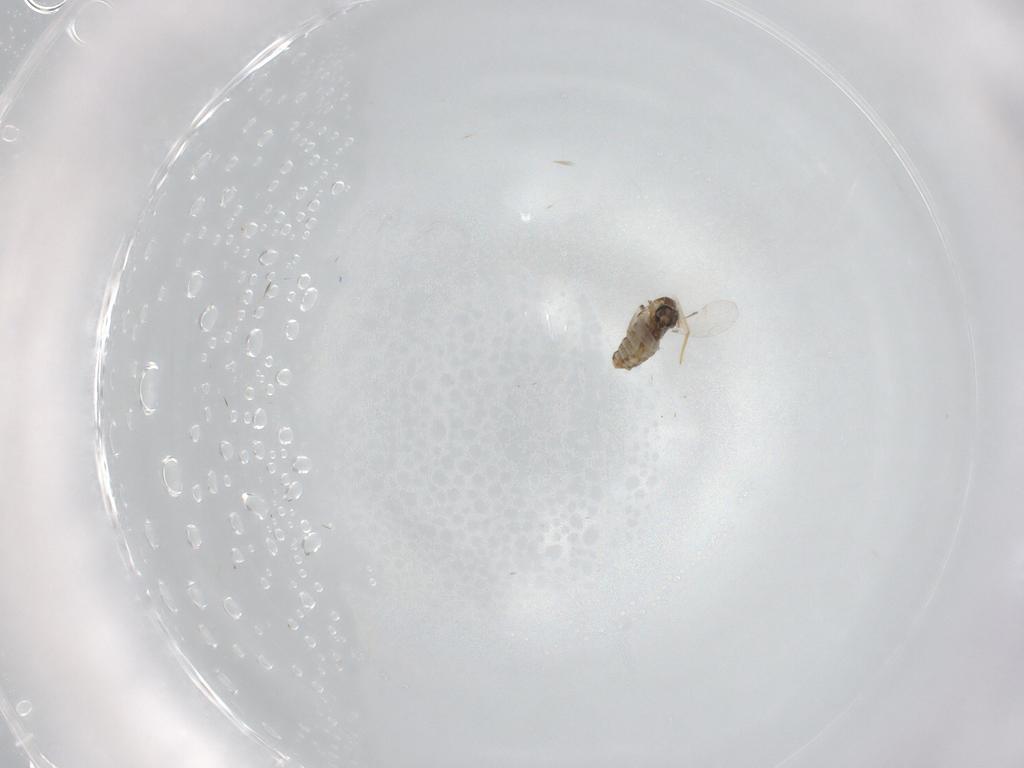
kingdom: Animalia
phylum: Arthropoda
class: Insecta
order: Diptera
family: Ceratopogonidae
